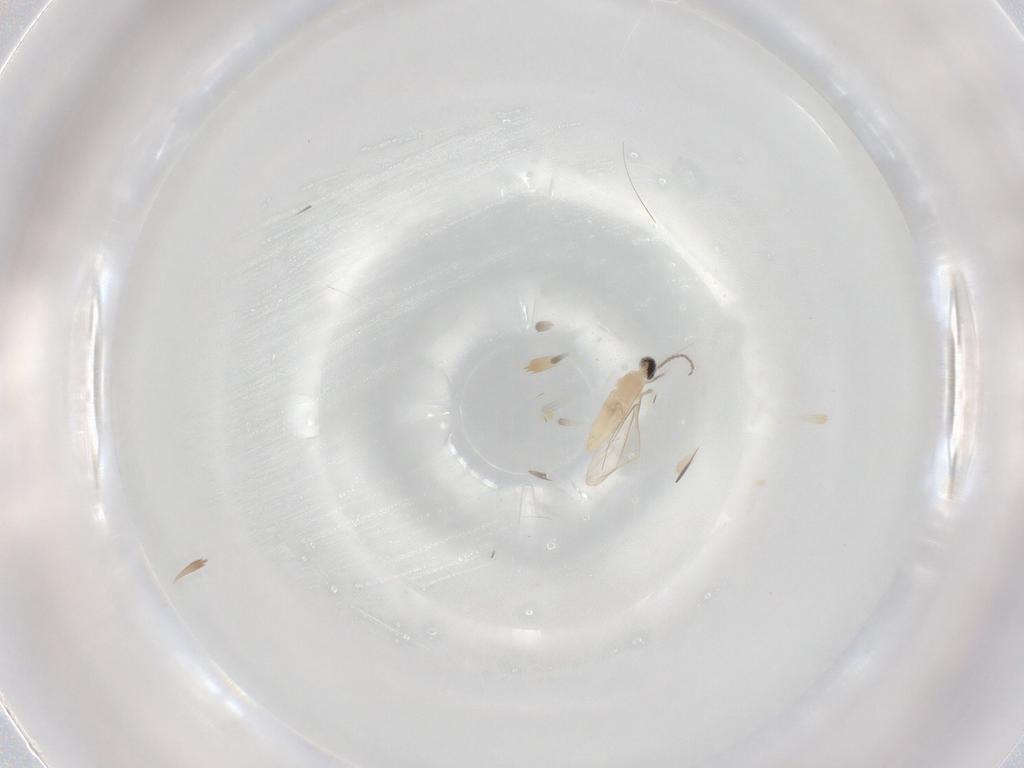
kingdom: Animalia
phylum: Arthropoda
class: Insecta
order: Diptera
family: Cecidomyiidae
